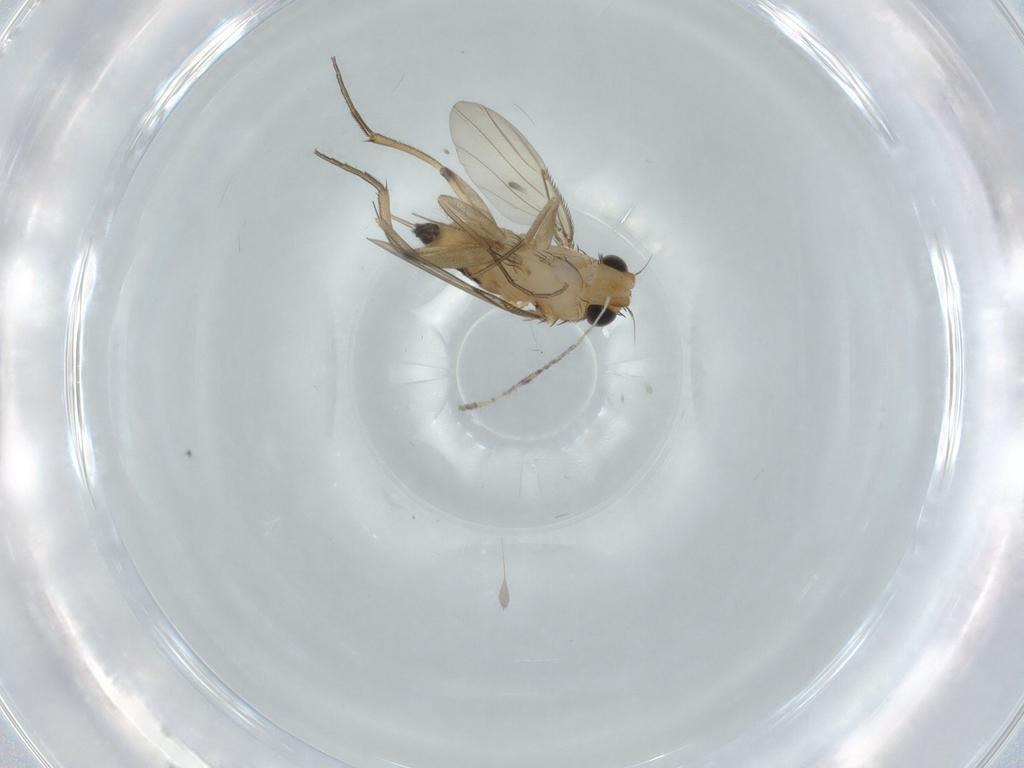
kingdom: Animalia
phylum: Arthropoda
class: Insecta
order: Diptera
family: Phoridae
